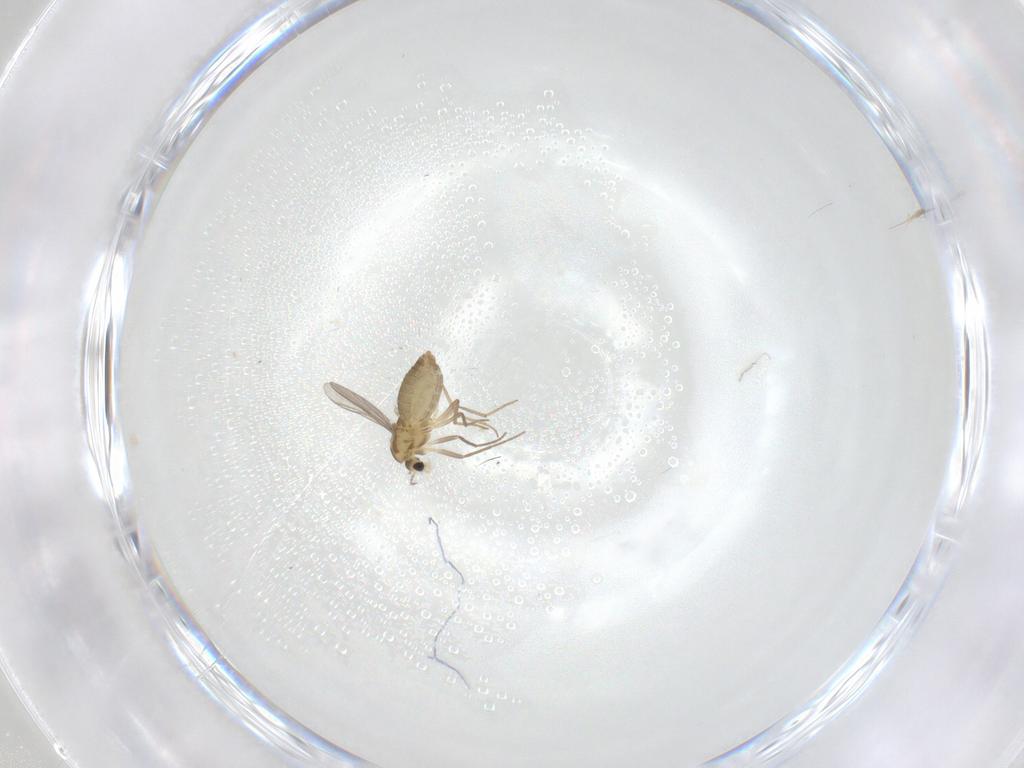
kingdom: Animalia
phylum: Arthropoda
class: Insecta
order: Diptera
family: Chironomidae
